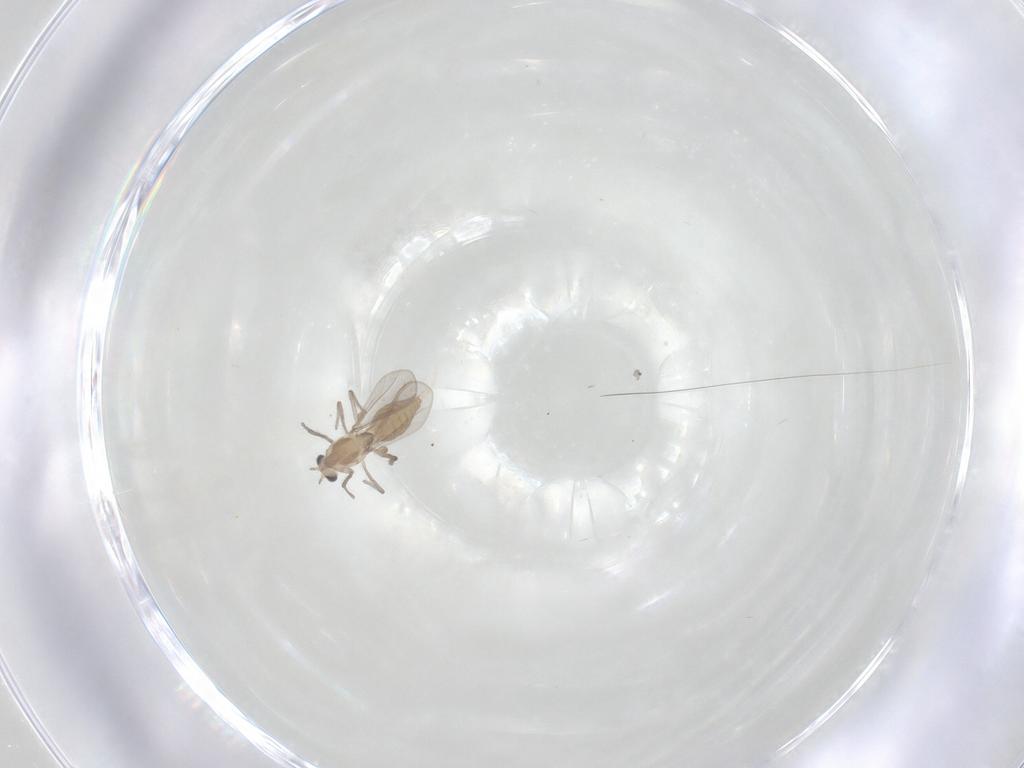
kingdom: Animalia
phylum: Arthropoda
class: Insecta
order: Diptera
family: Chironomidae
